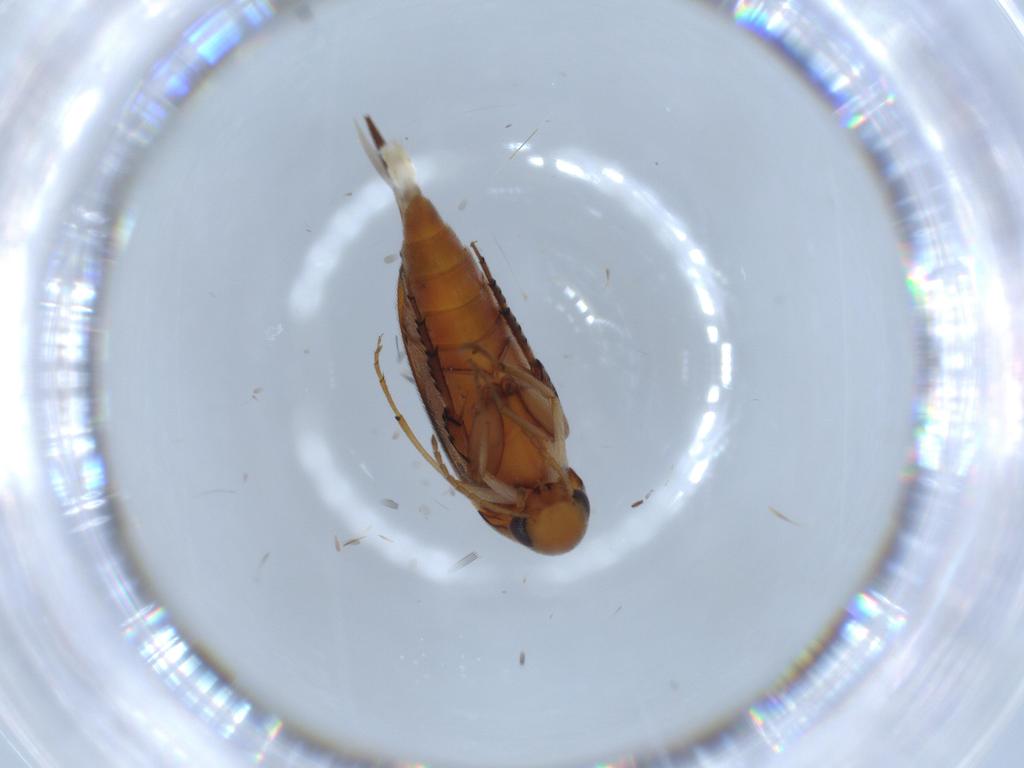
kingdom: Animalia
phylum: Arthropoda
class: Insecta
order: Coleoptera
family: Mordellidae
